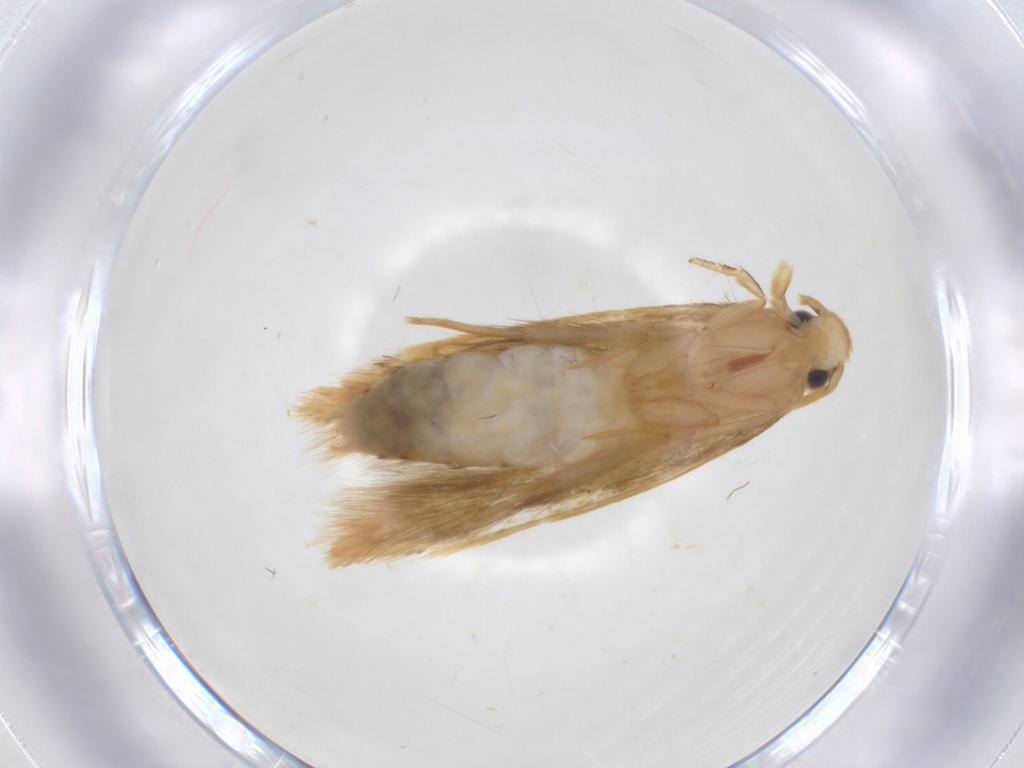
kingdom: Animalia
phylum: Arthropoda
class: Insecta
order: Lepidoptera
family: Tineidae
